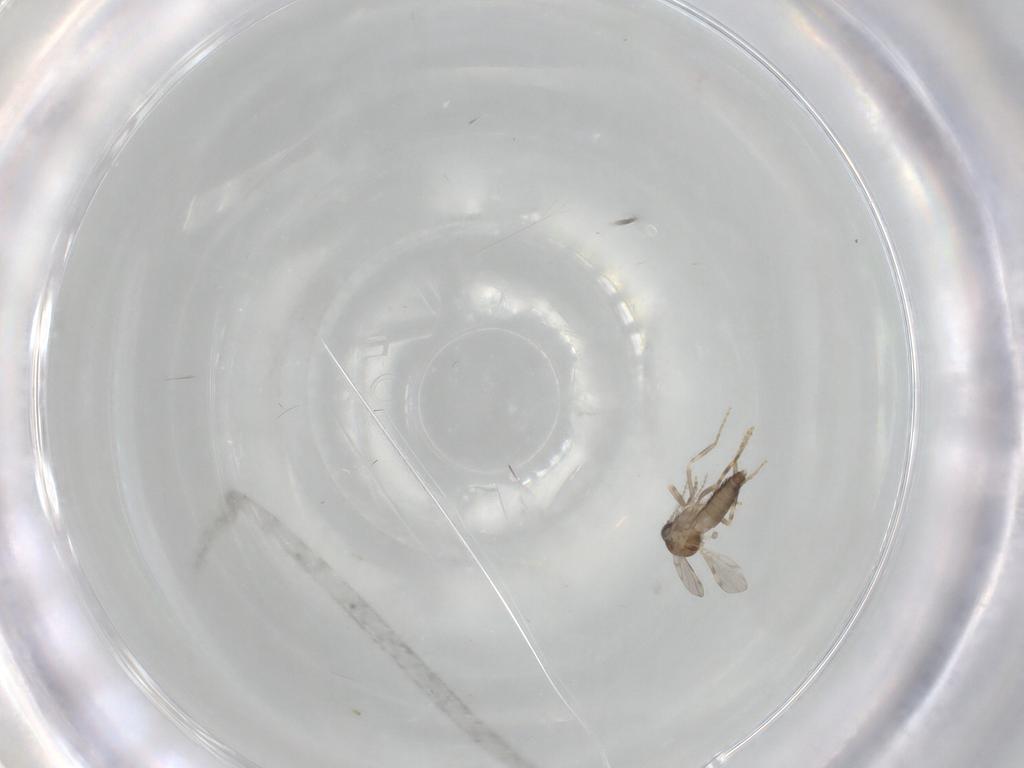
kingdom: Animalia
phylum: Arthropoda
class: Insecta
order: Diptera
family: Ceratopogonidae
